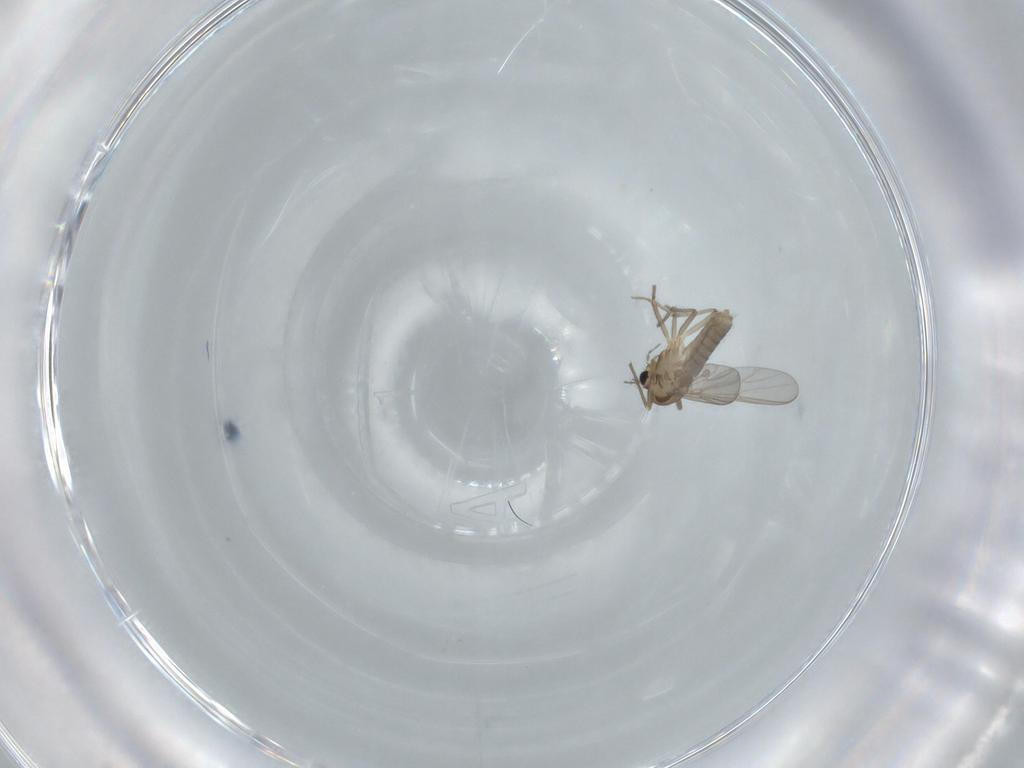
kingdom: Animalia
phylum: Arthropoda
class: Insecta
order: Diptera
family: Chironomidae
